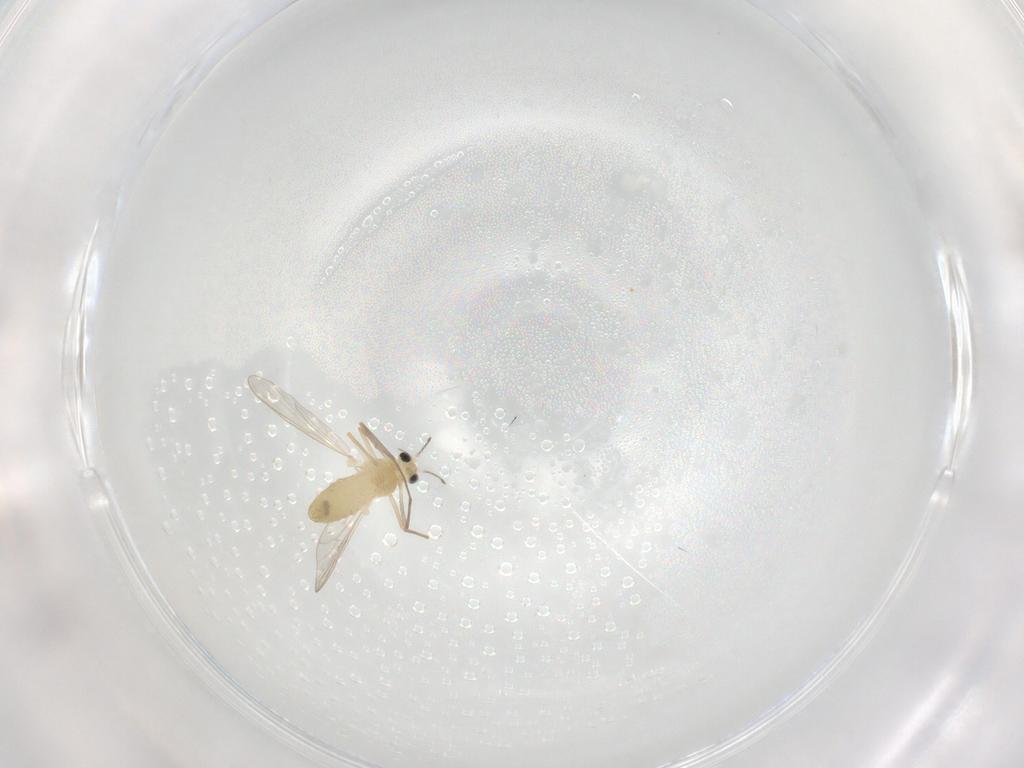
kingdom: Animalia
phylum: Arthropoda
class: Insecta
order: Diptera
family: Chironomidae
